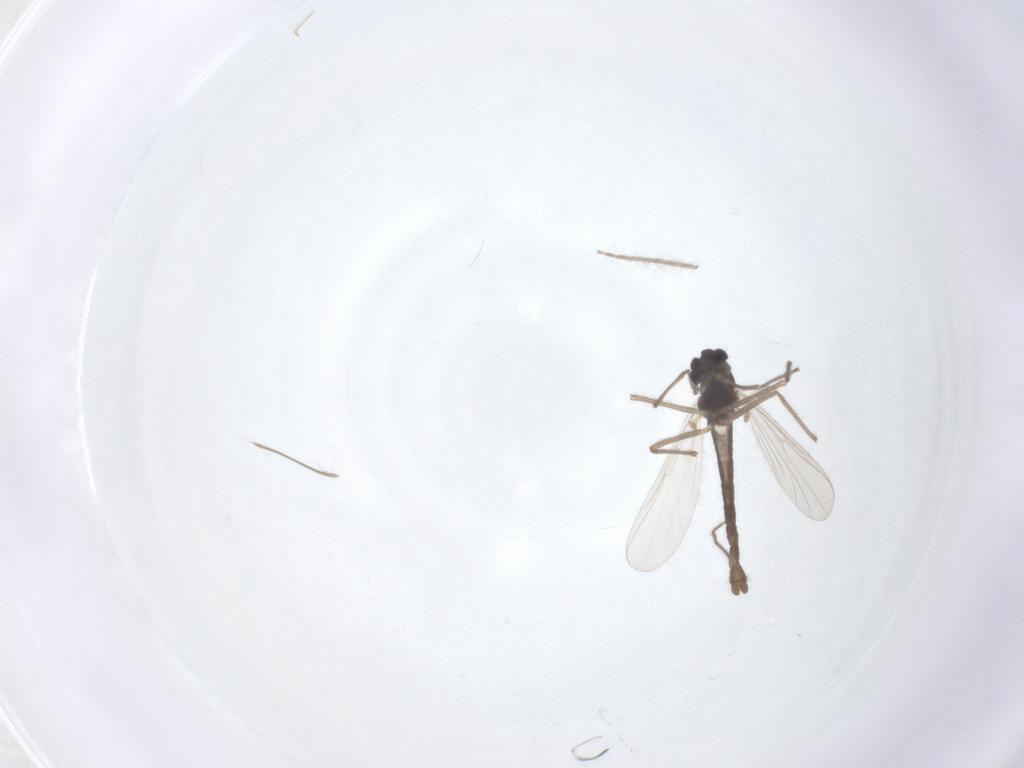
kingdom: Animalia
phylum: Arthropoda
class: Insecta
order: Diptera
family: Chironomidae
